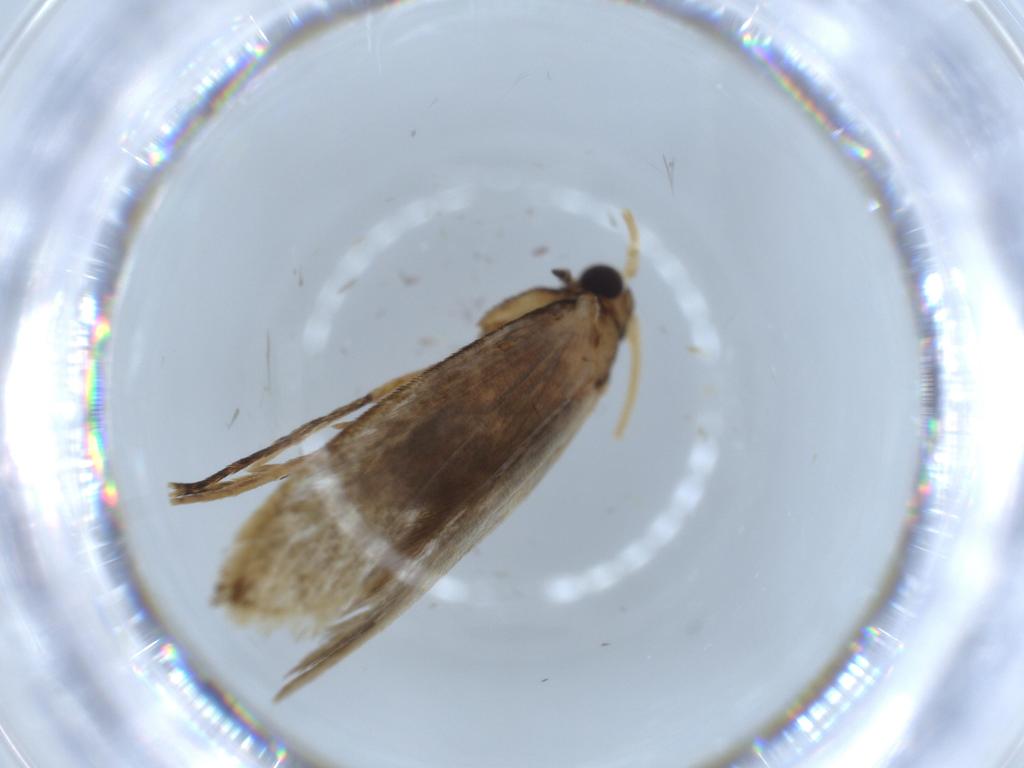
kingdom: Animalia
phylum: Arthropoda
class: Insecta
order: Lepidoptera
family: Tineidae
